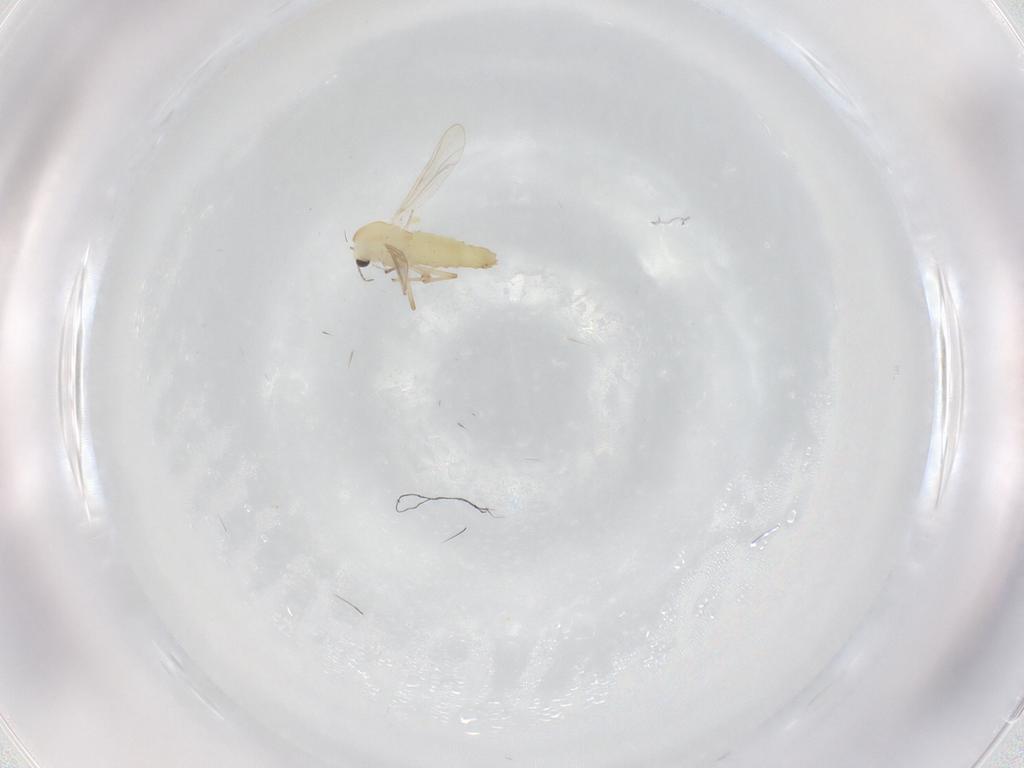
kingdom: Animalia
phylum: Arthropoda
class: Insecta
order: Diptera
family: Chironomidae
